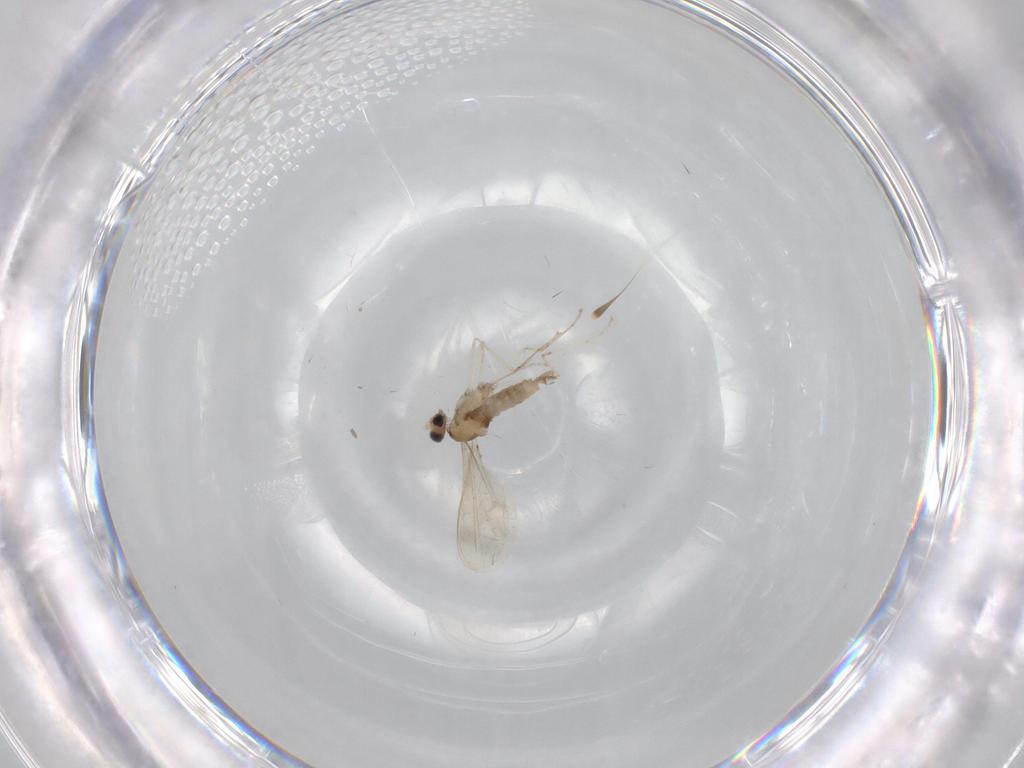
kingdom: Animalia
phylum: Arthropoda
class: Insecta
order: Diptera
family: Cecidomyiidae
